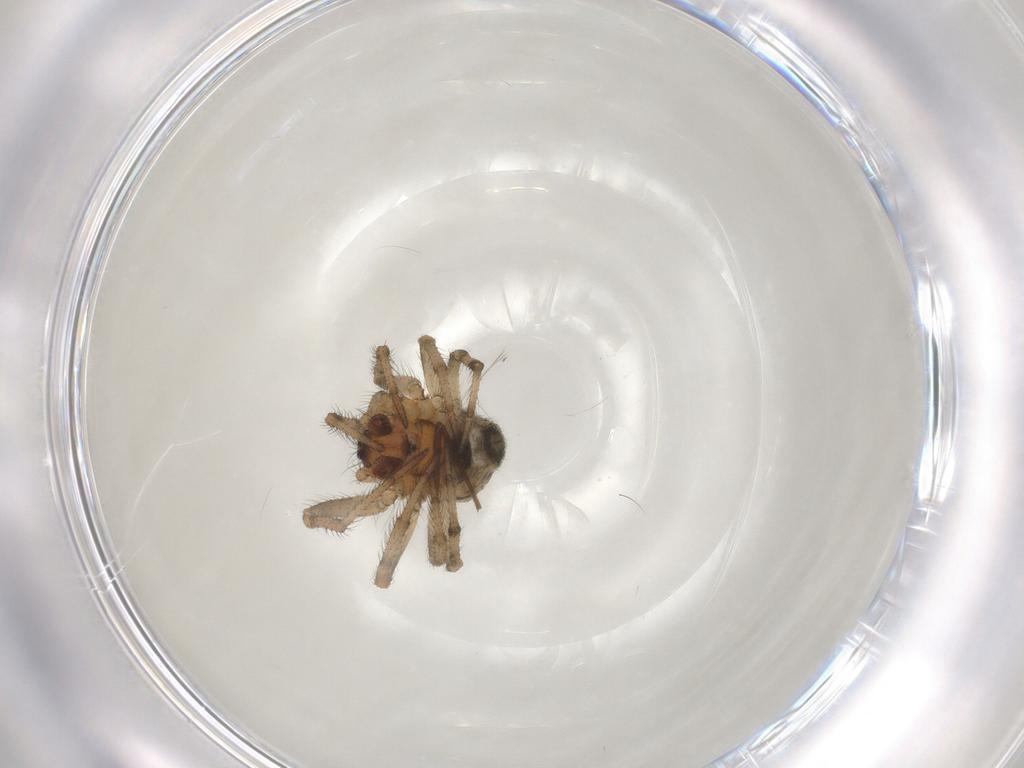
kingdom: Animalia
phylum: Arthropoda
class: Arachnida
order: Araneae
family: Theridiidae
